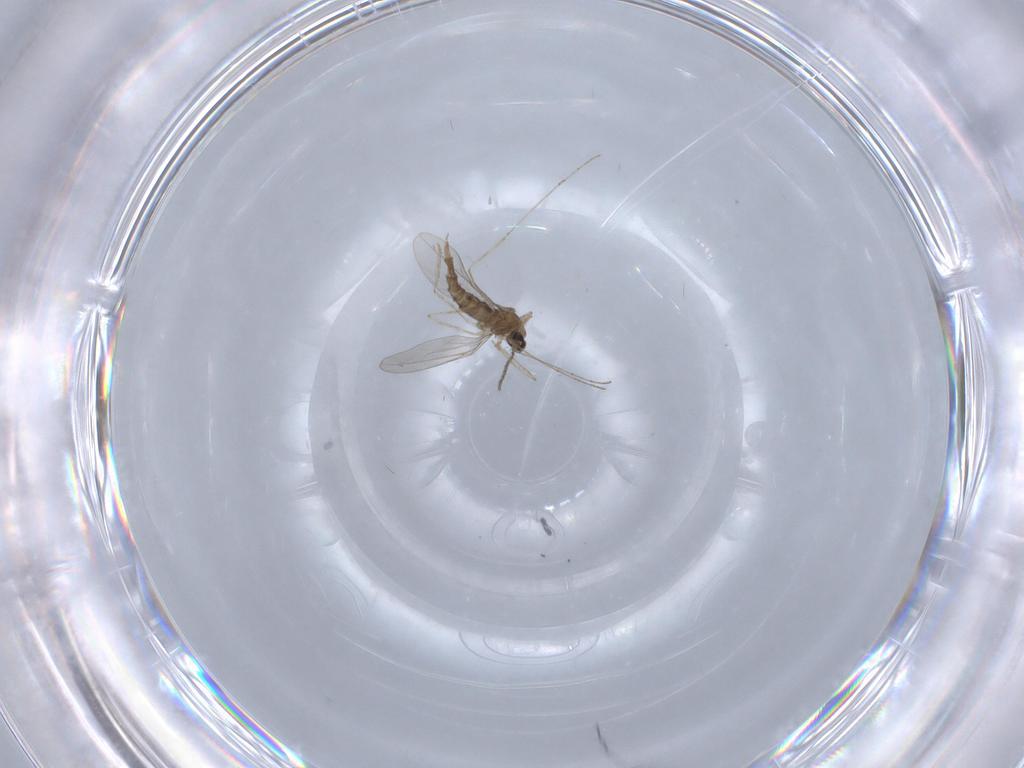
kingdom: Animalia
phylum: Arthropoda
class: Insecta
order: Diptera
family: Cecidomyiidae
